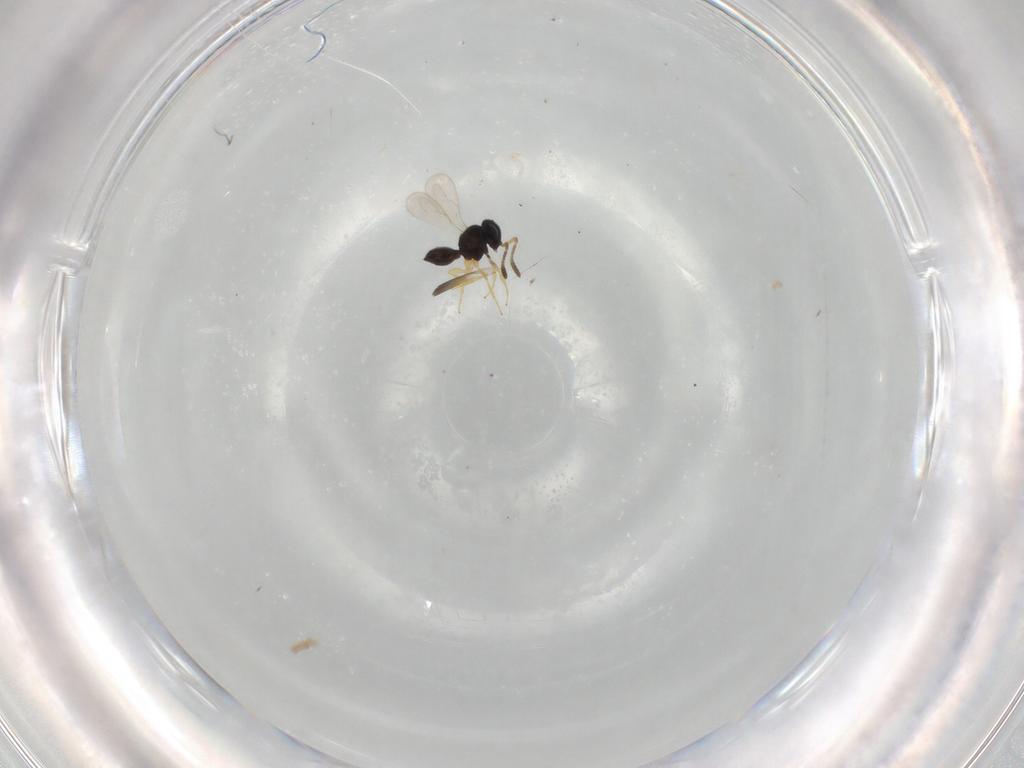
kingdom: Animalia
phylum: Arthropoda
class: Insecta
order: Hymenoptera
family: Scelionidae
